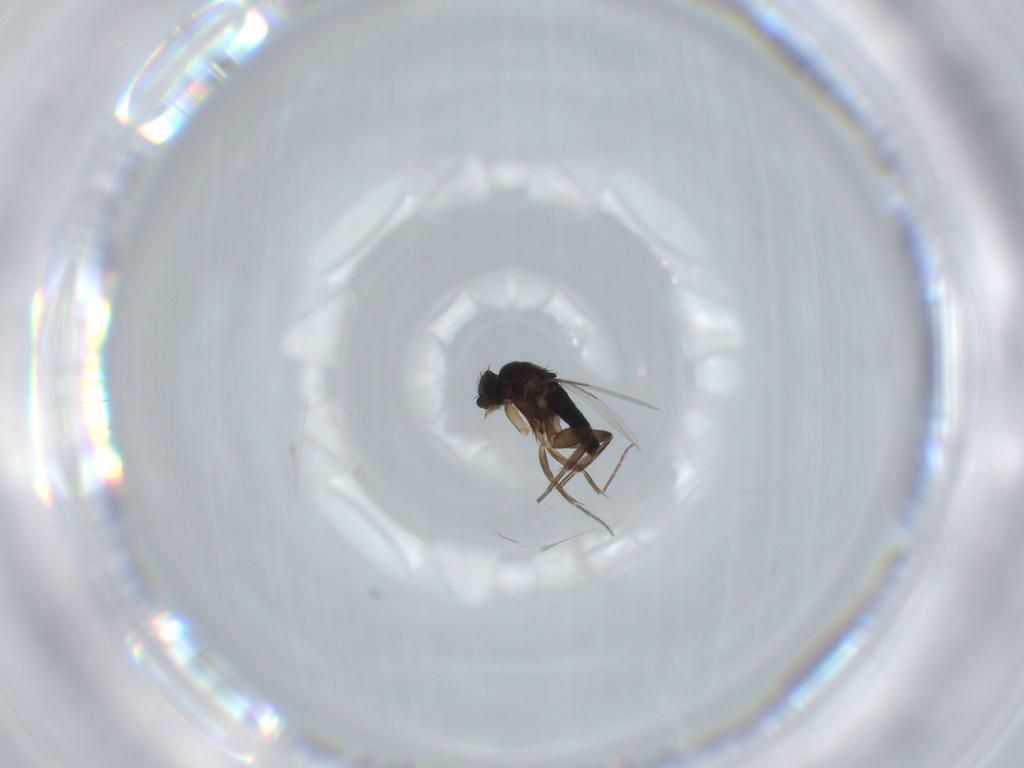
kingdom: Animalia
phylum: Arthropoda
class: Insecta
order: Diptera
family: Phoridae
